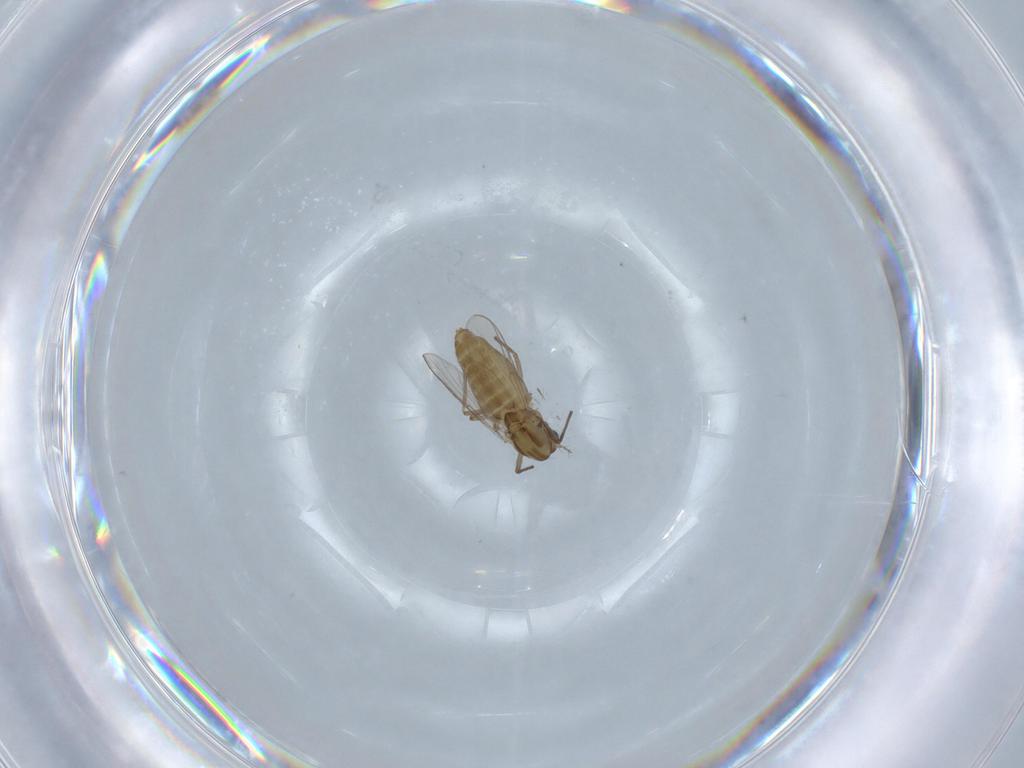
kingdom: Animalia
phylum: Arthropoda
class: Insecta
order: Diptera
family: Chironomidae
